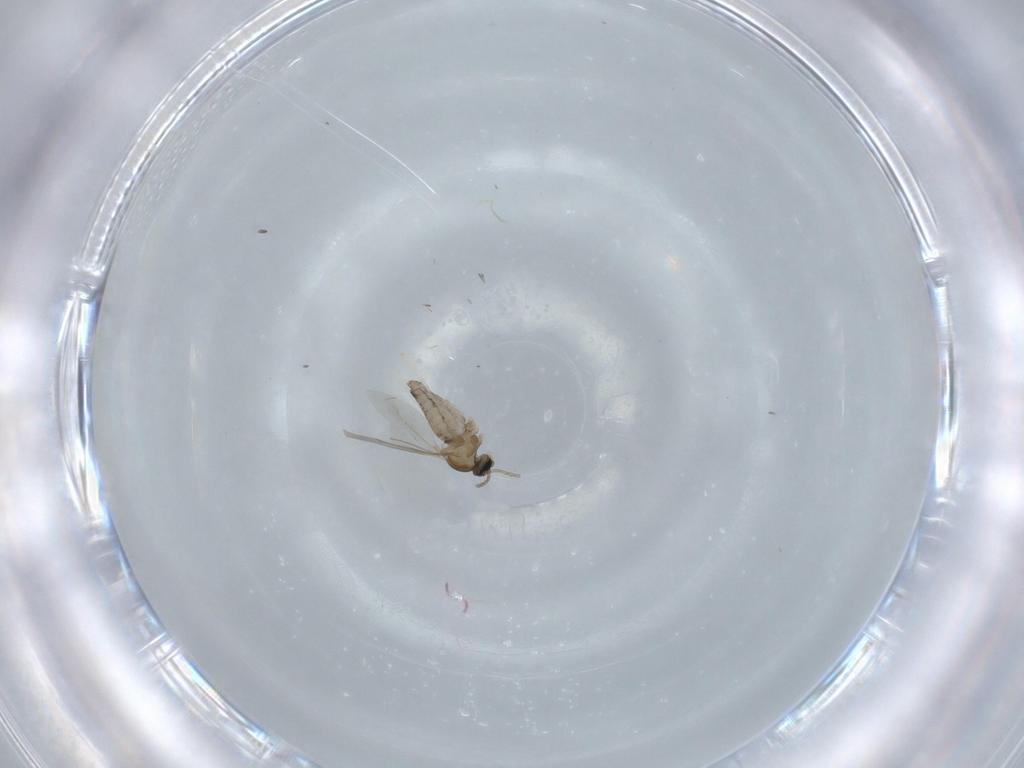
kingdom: Animalia
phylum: Arthropoda
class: Insecta
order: Diptera
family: Cecidomyiidae
